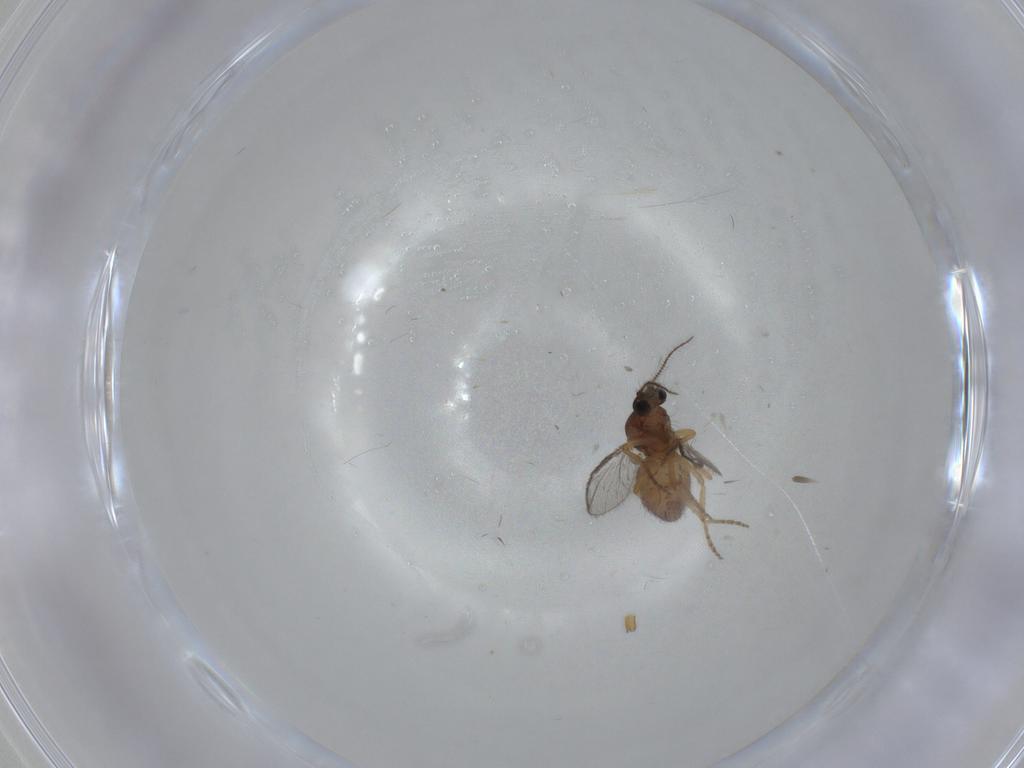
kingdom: Animalia
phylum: Arthropoda
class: Insecta
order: Diptera
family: Ceratopogonidae
